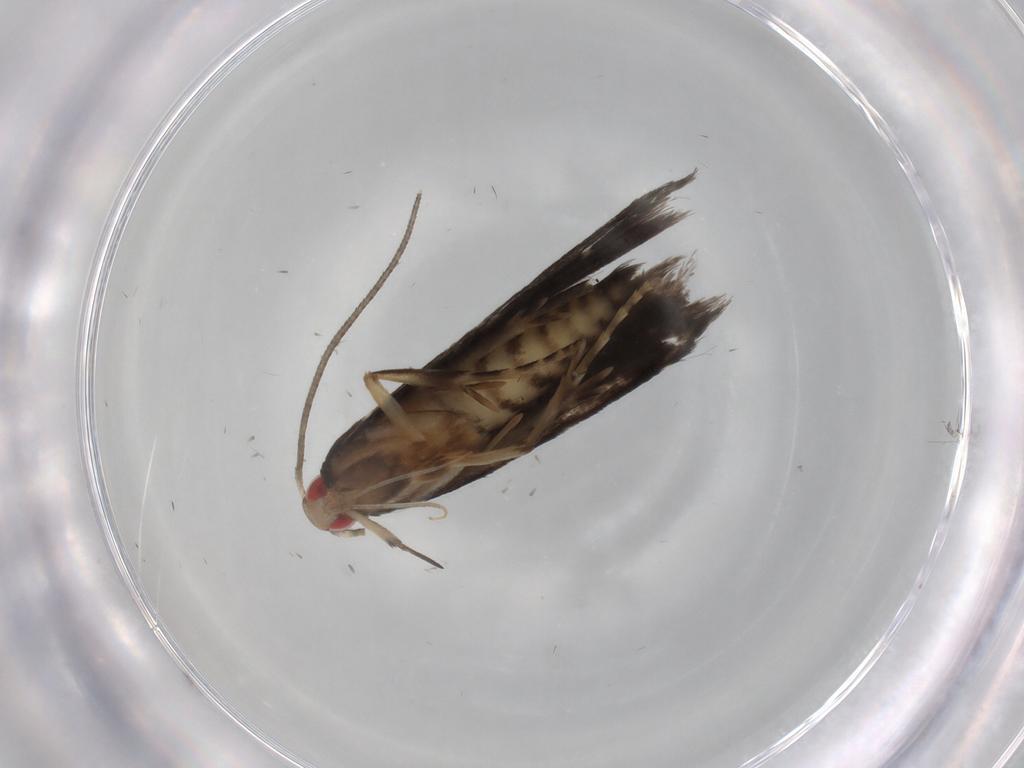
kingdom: Animalia
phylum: Arthropoda
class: Insecta
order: Lepidoptera
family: Gelechiidae
